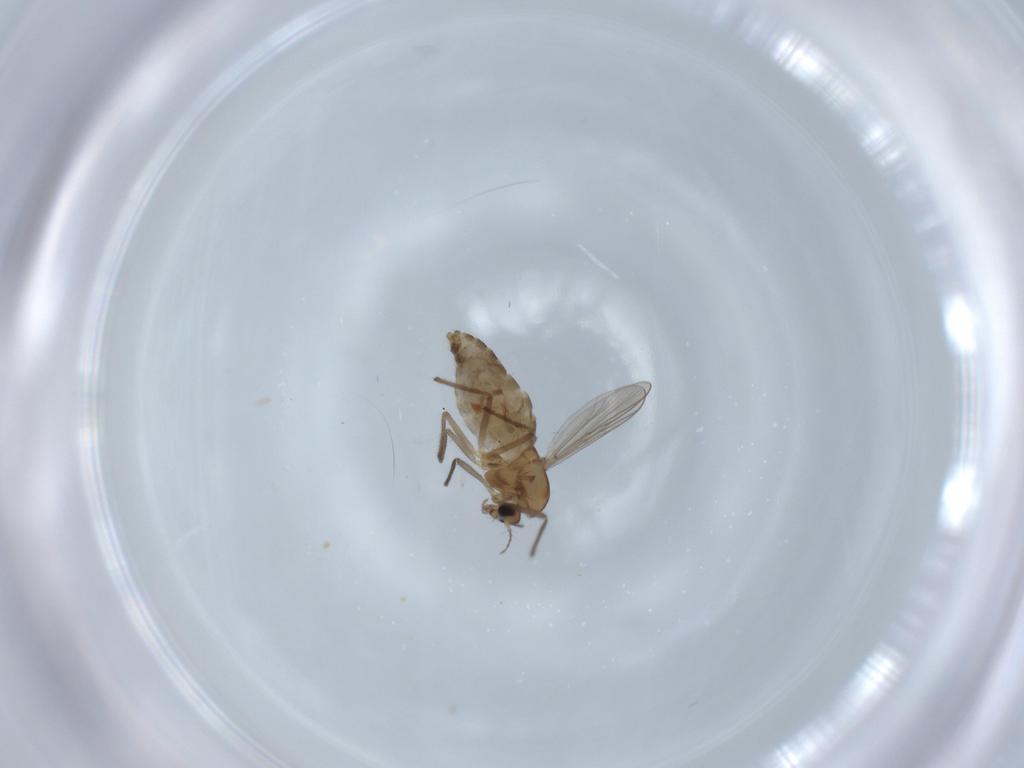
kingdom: Animalia
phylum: Arthropoda
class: Insecta
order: Diptera
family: Chironomidae
